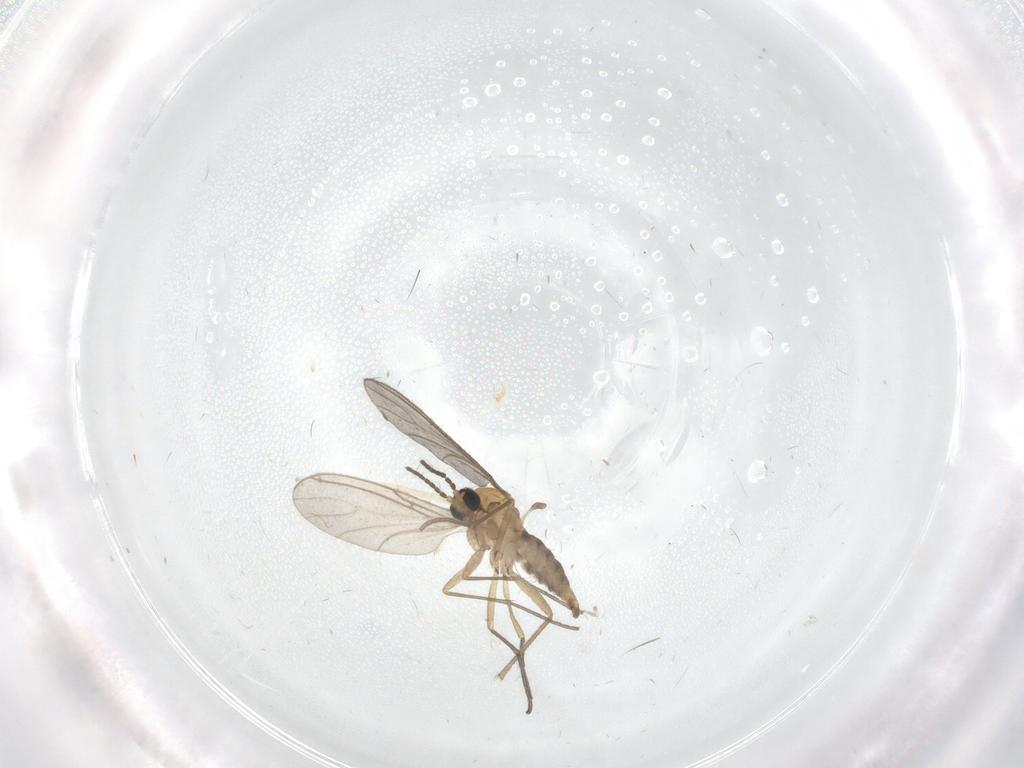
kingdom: Animalia
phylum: Arthropoda
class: Insecta
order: Diptera
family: Sciaridae
